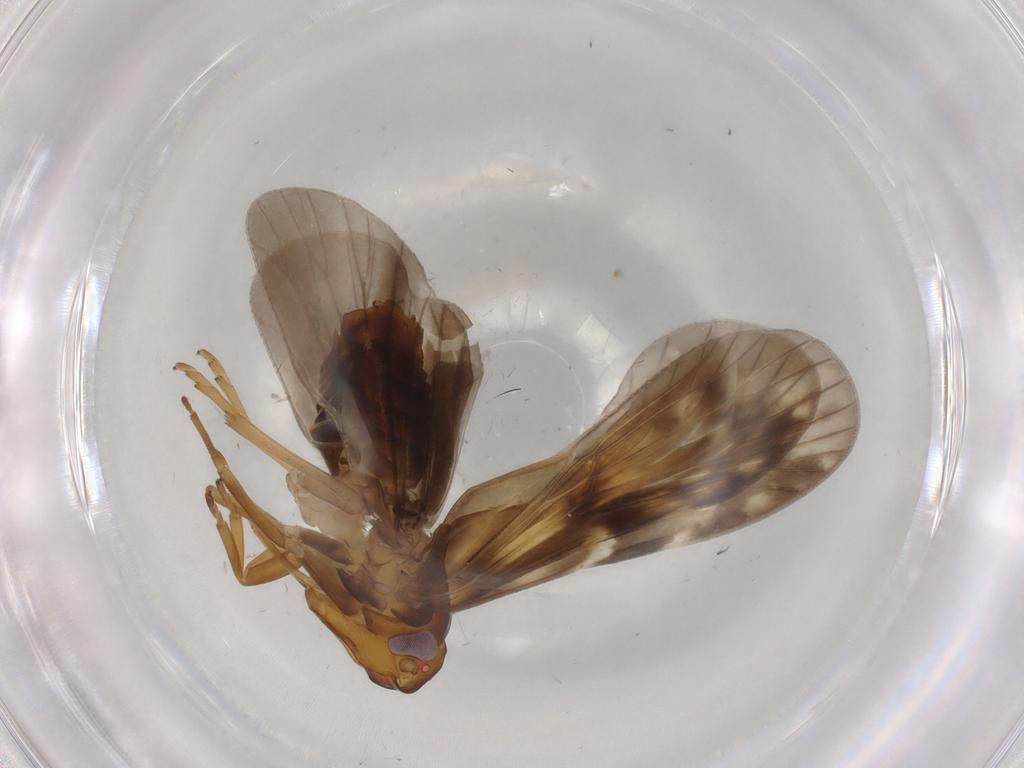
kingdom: Animalia
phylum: Arthropoda
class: Insecta
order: Hemiptera
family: Cixiidae
